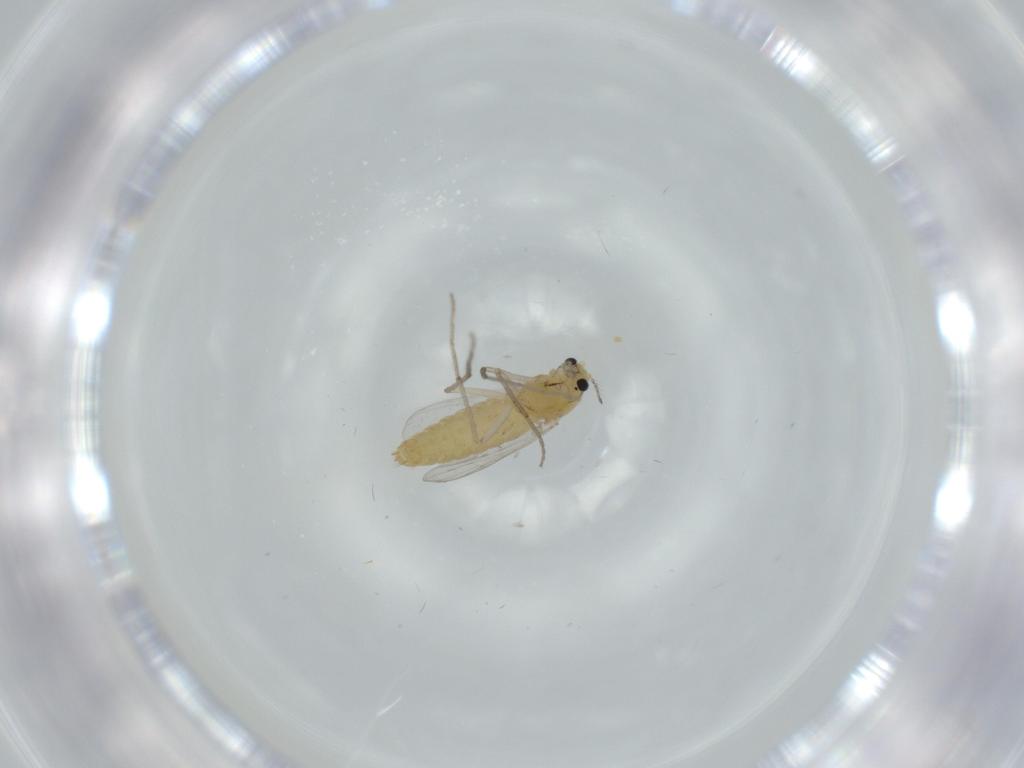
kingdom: Animalia
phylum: Arthropoda
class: Insecta
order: Diptera
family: Chironomidae
